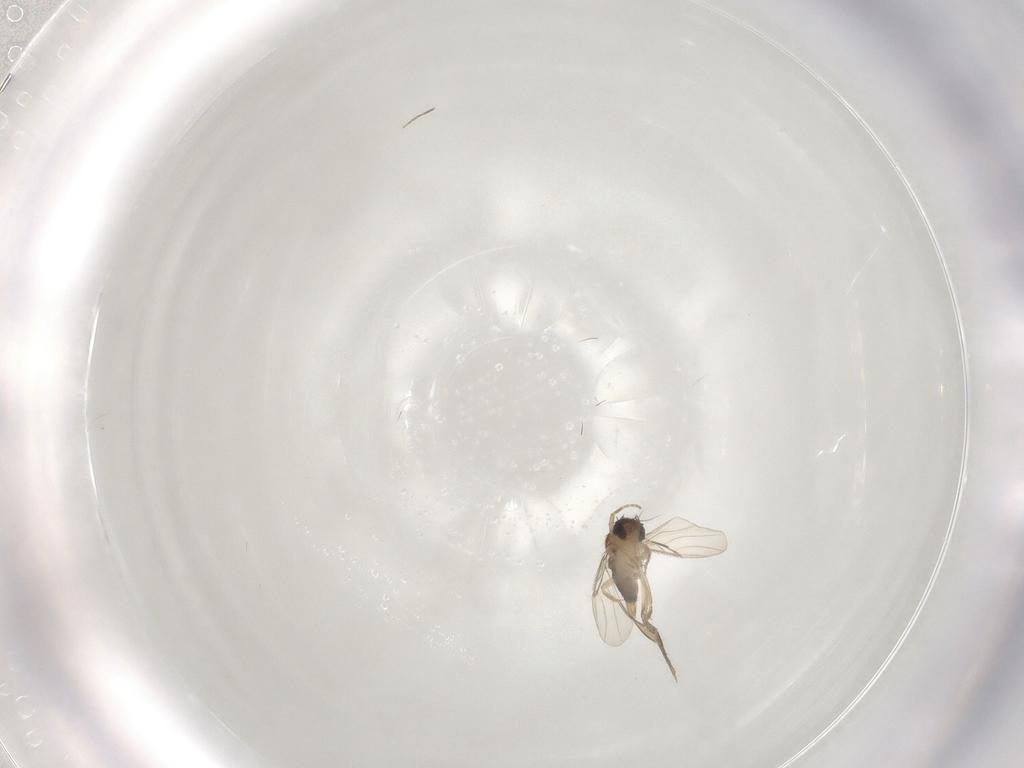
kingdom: Animalia
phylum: Arthropoda
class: Insecta
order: Diptera
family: Phoridae
